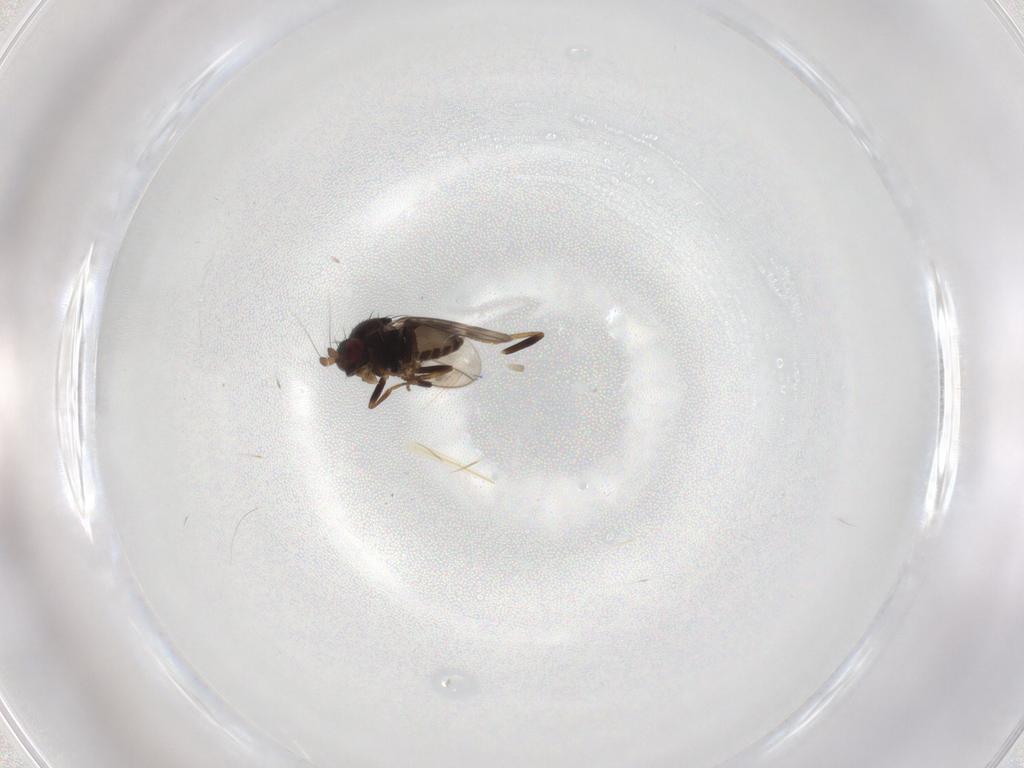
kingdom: Animalia
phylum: Arthropoda
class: Insecta
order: Diptera
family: Sphaeroceridae
